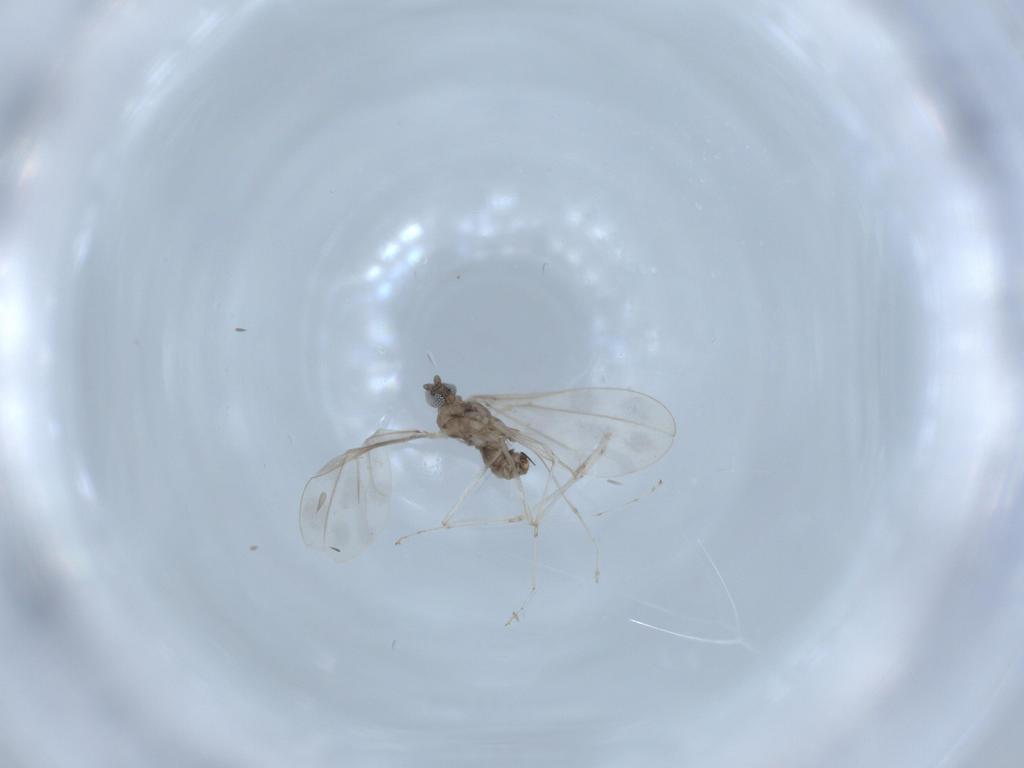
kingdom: Animalia
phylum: Arthropoda
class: Insecta
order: Diptera
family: Cecidomyiidae
